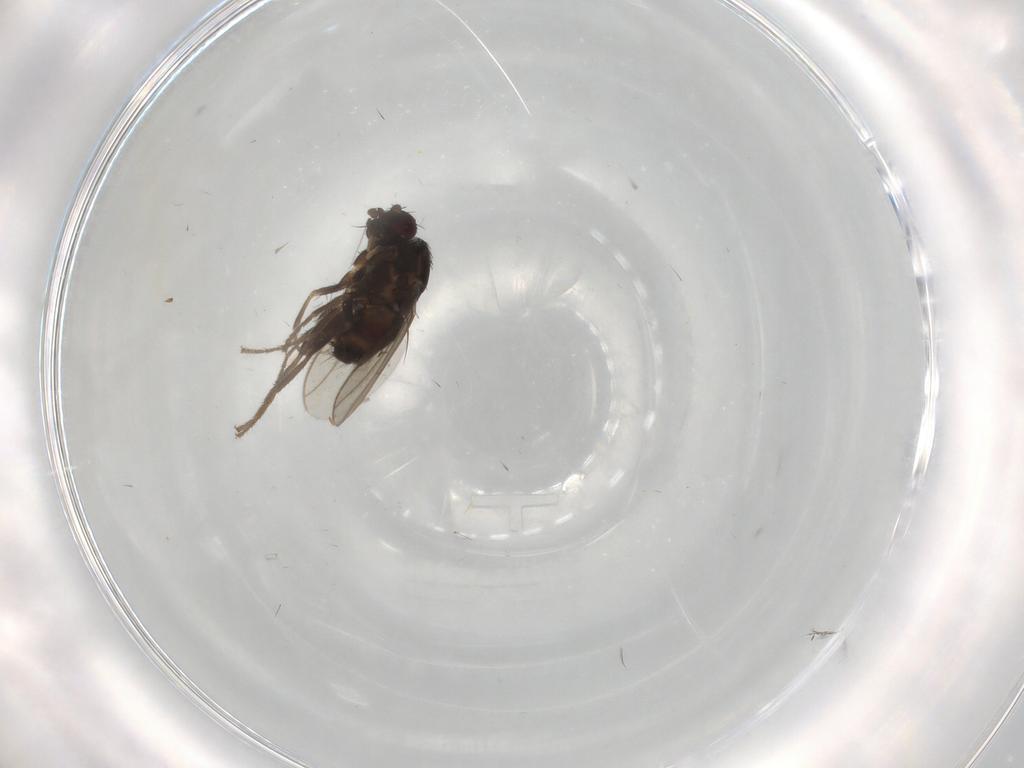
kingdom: Animalia
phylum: Arthropoda
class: Insecta
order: Diptera
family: Sphaeroceridae
